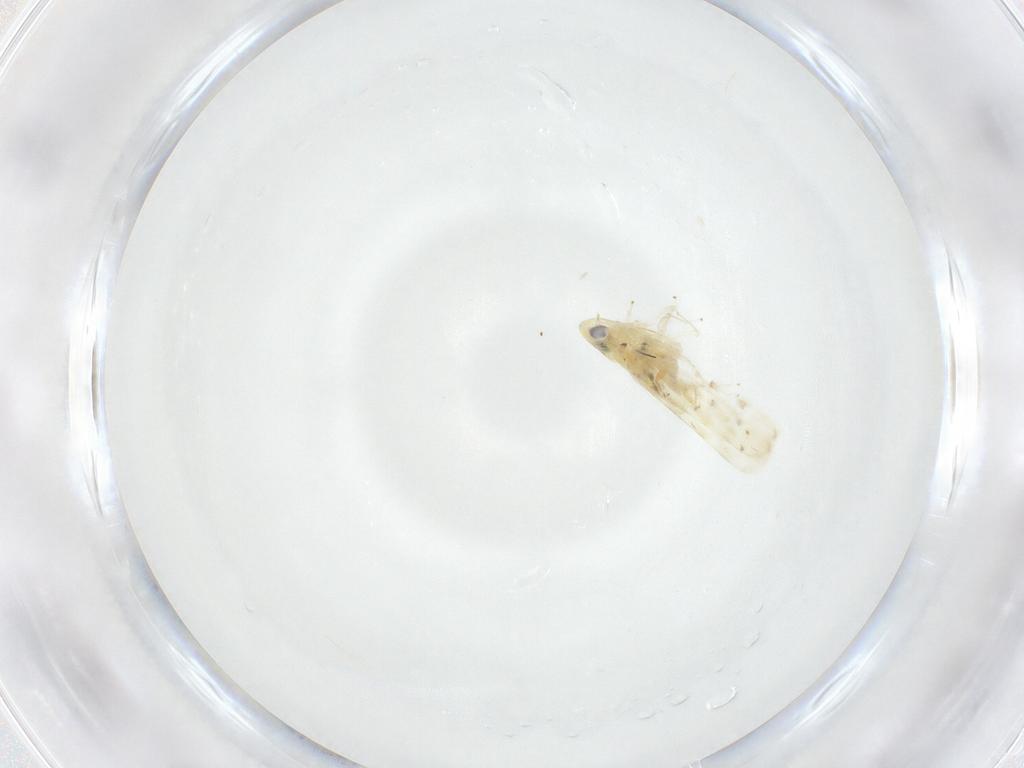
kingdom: Animalia
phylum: Arthropoda
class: Insecta
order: Hemiptera
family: Cicadellidae
